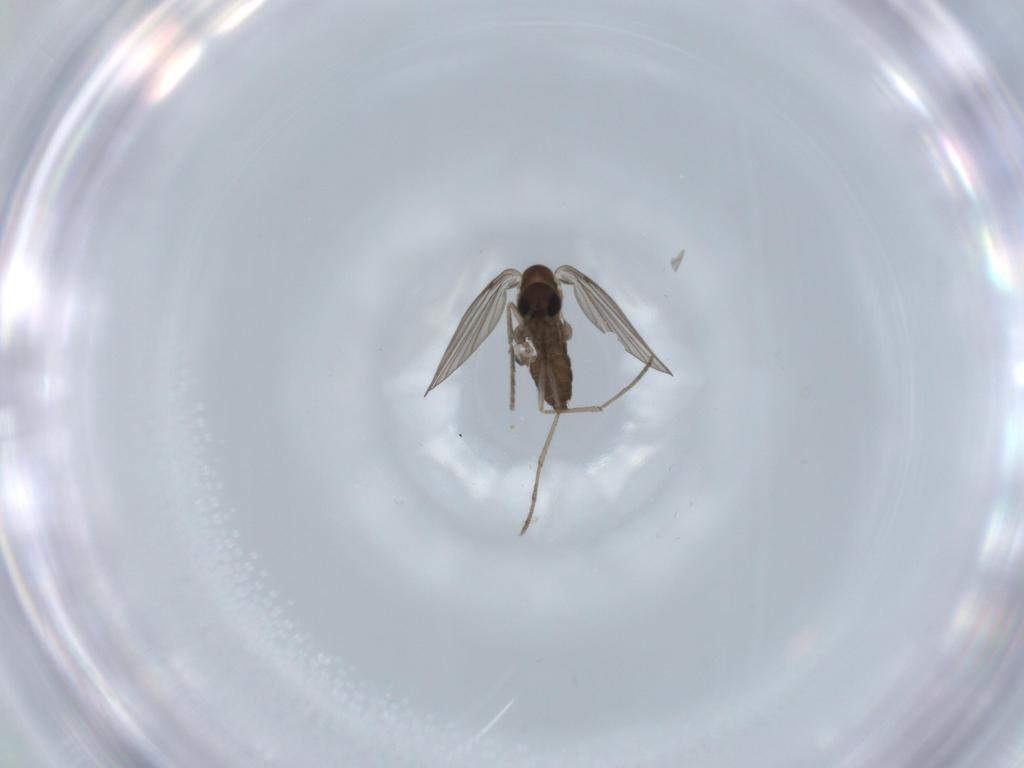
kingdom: Animalia
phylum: Arthropoda
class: Insecta
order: Diptera
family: Psychodidae
